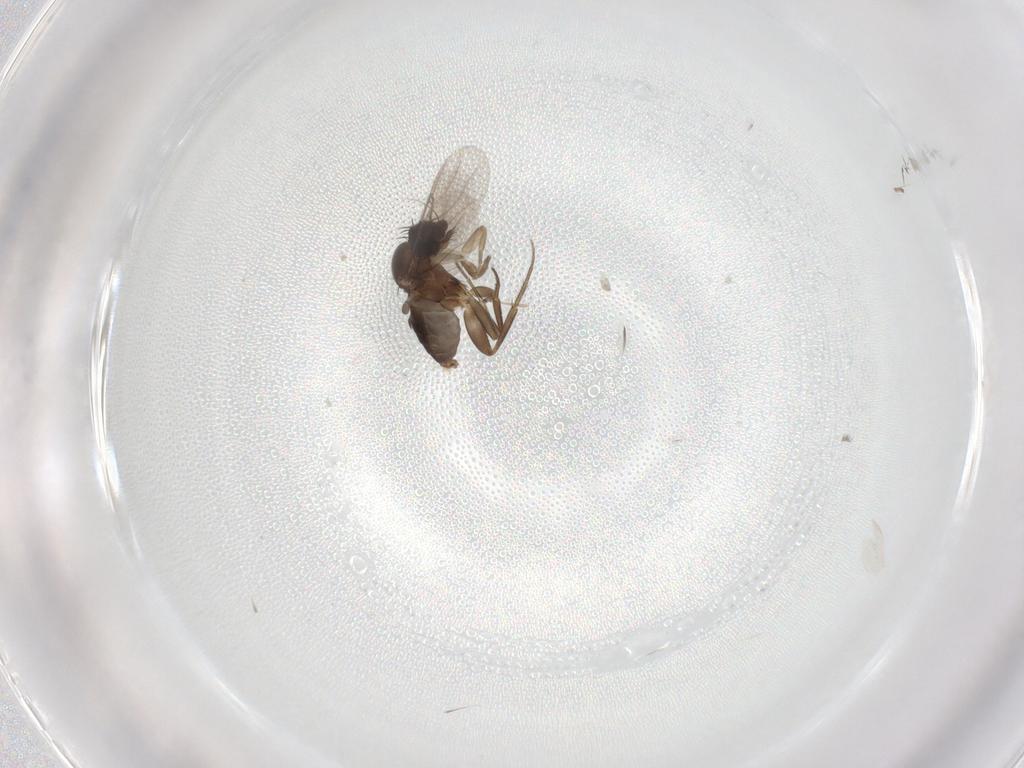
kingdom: Animalia
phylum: Arthropoda
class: Insecta
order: Diptera
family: Phoridae
